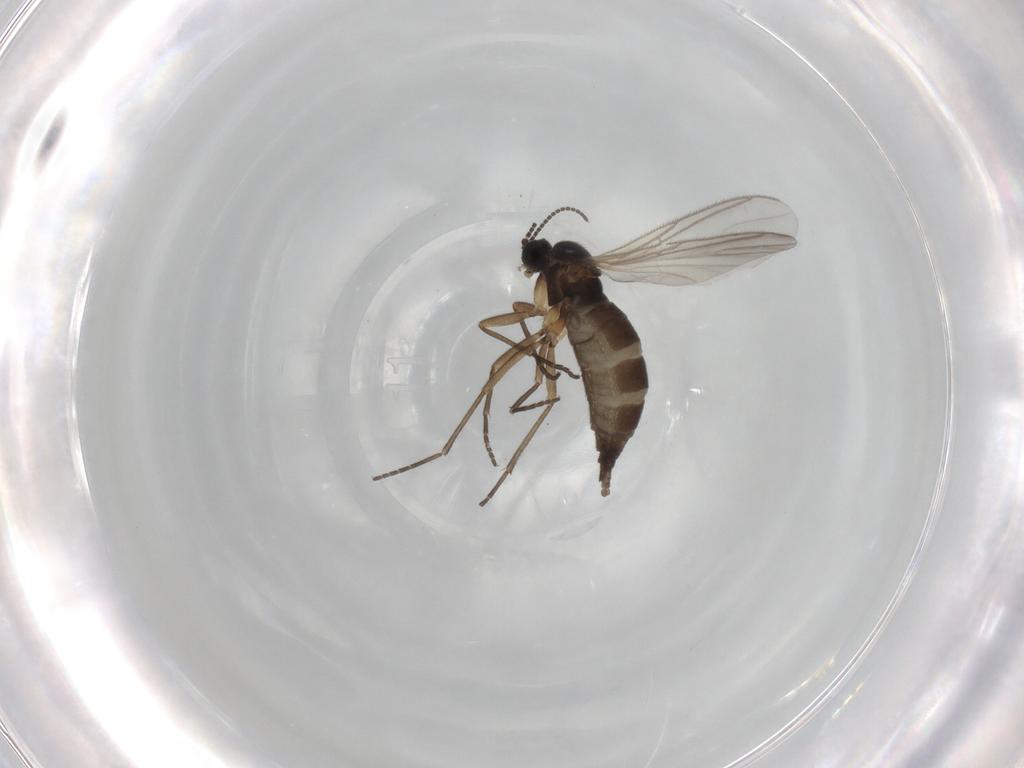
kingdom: Animalia
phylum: Arthropoda
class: Insecta
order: Diptera
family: Sciaridae
